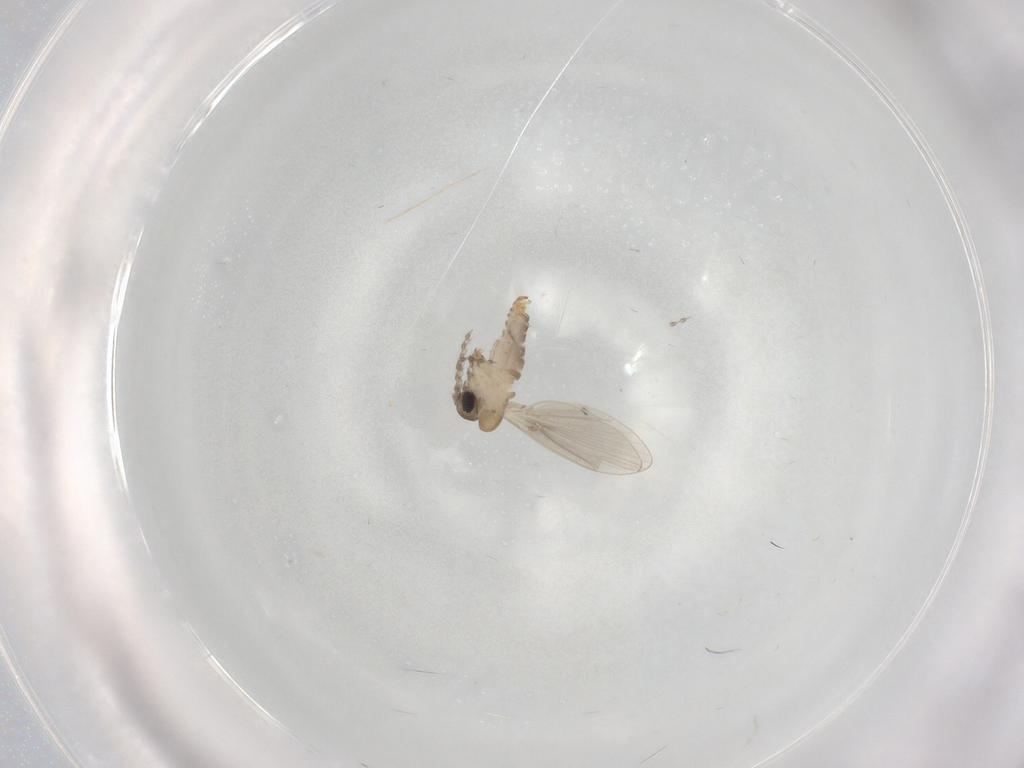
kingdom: Animalia
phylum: Arthropoda
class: Insecta
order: Diptera
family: Psychodidae
